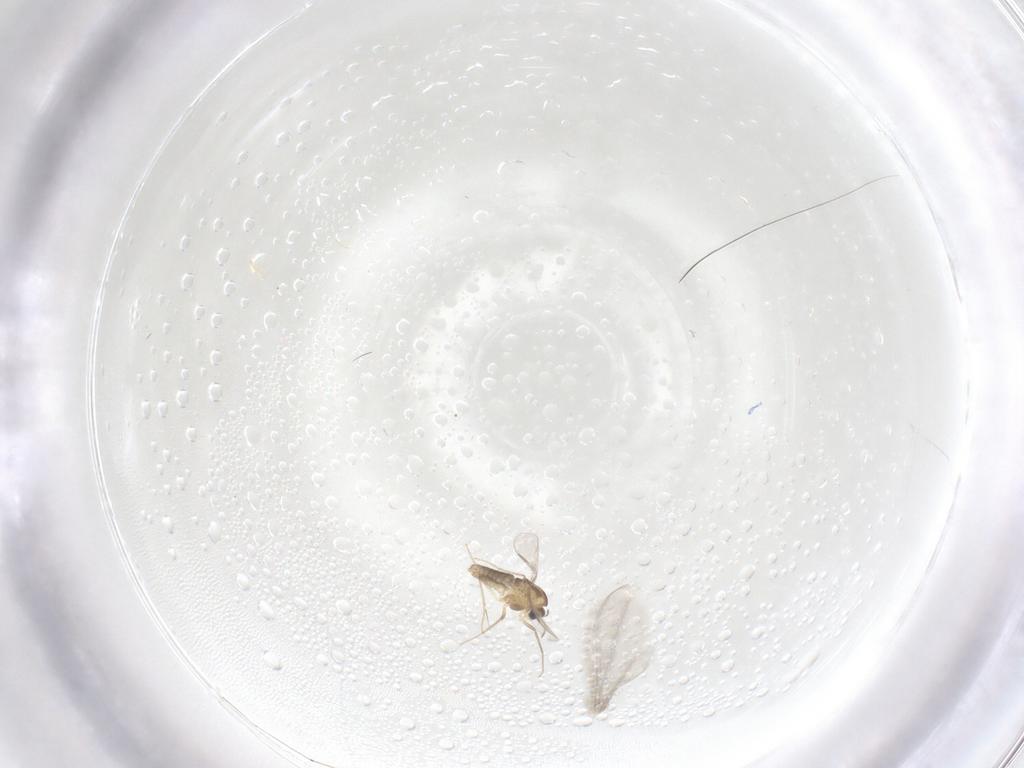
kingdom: Animalia
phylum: Arthropoda
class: Insecta
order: Diptera
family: Chironomidae
